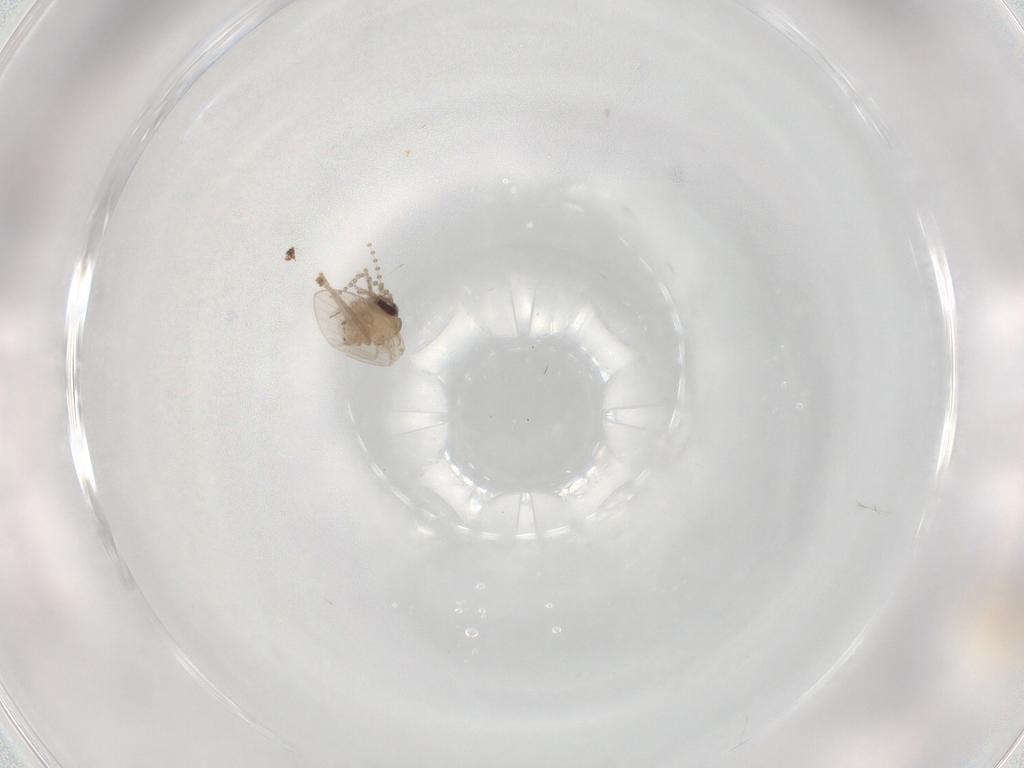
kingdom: Animalia
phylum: Arthropoda
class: Insecta
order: Diptera
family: Psychodidae
